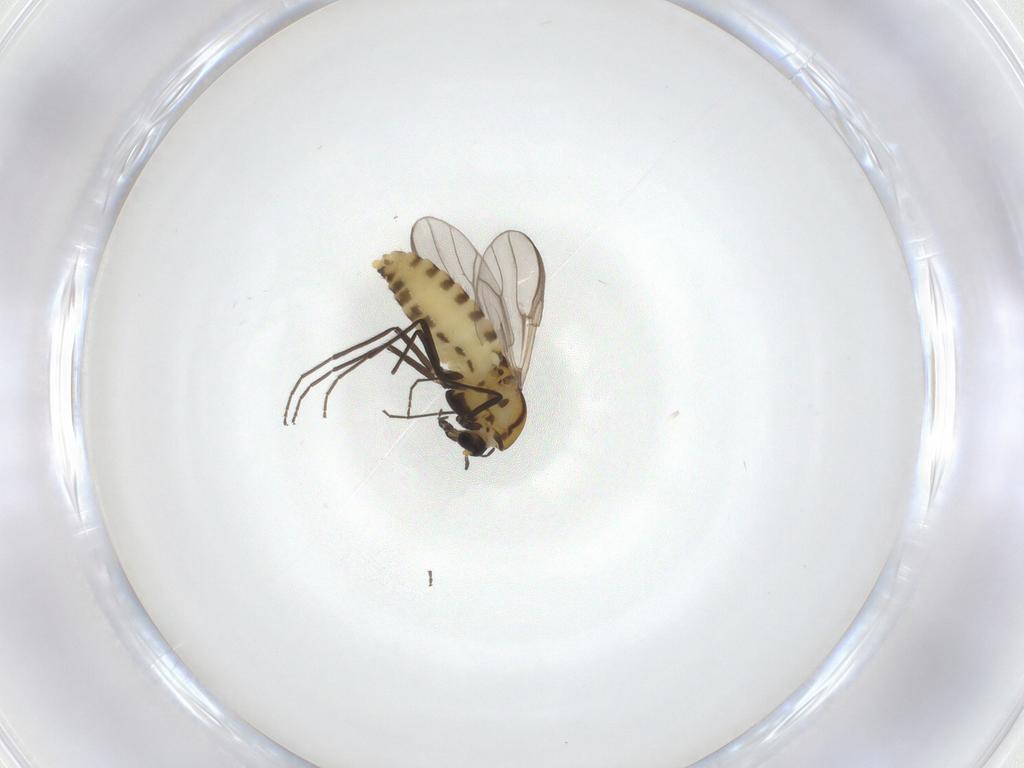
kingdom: Animalia
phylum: Arthropoda
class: Insecta
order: Diptera
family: Chironomidae
